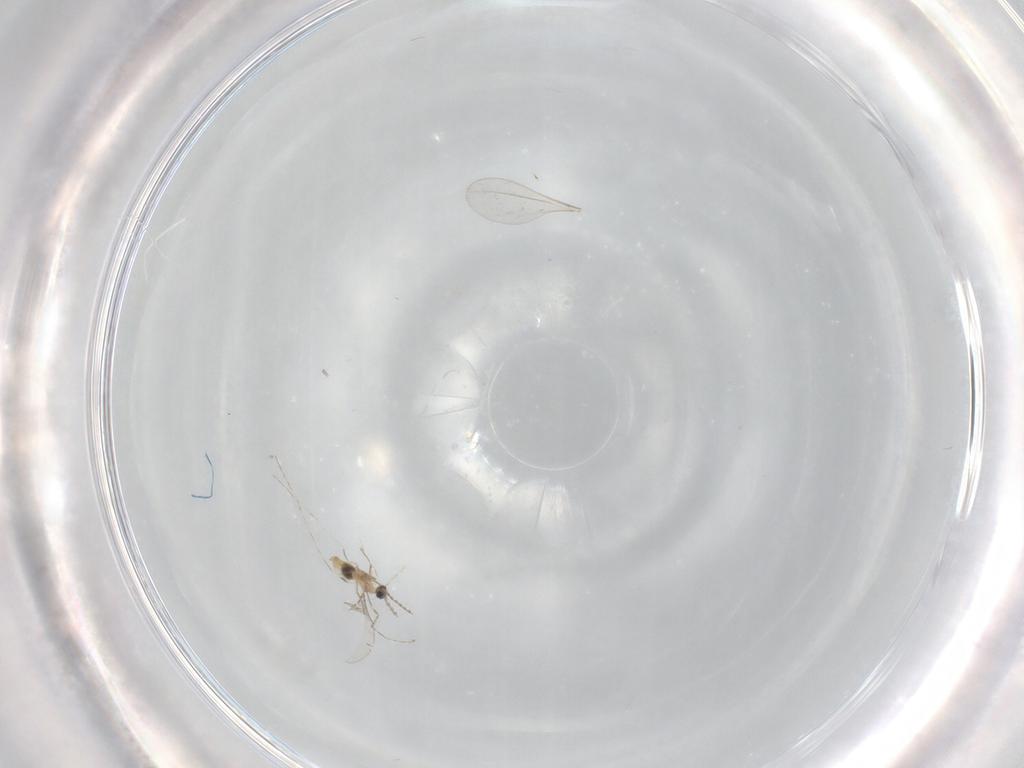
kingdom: Animalia
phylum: Arthropoda
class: Insecta
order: Diptera
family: Cecidomyiidae
